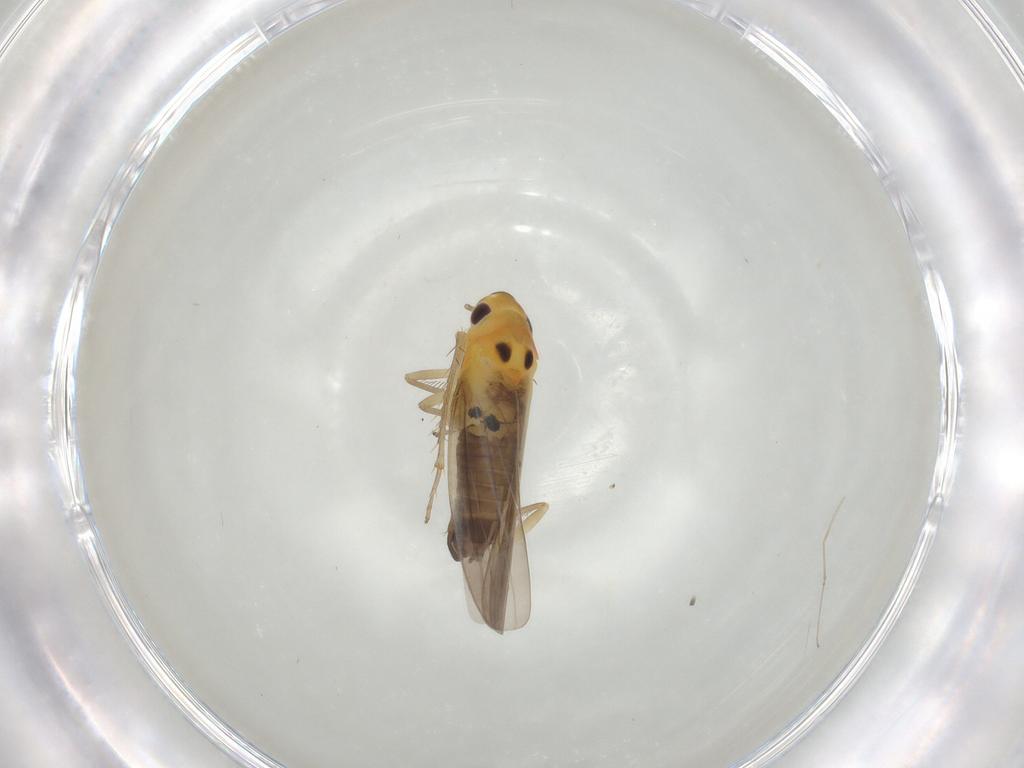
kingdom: Animalia
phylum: Arthropoda
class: Insecta
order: Hemiptera
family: Cicadellidae
